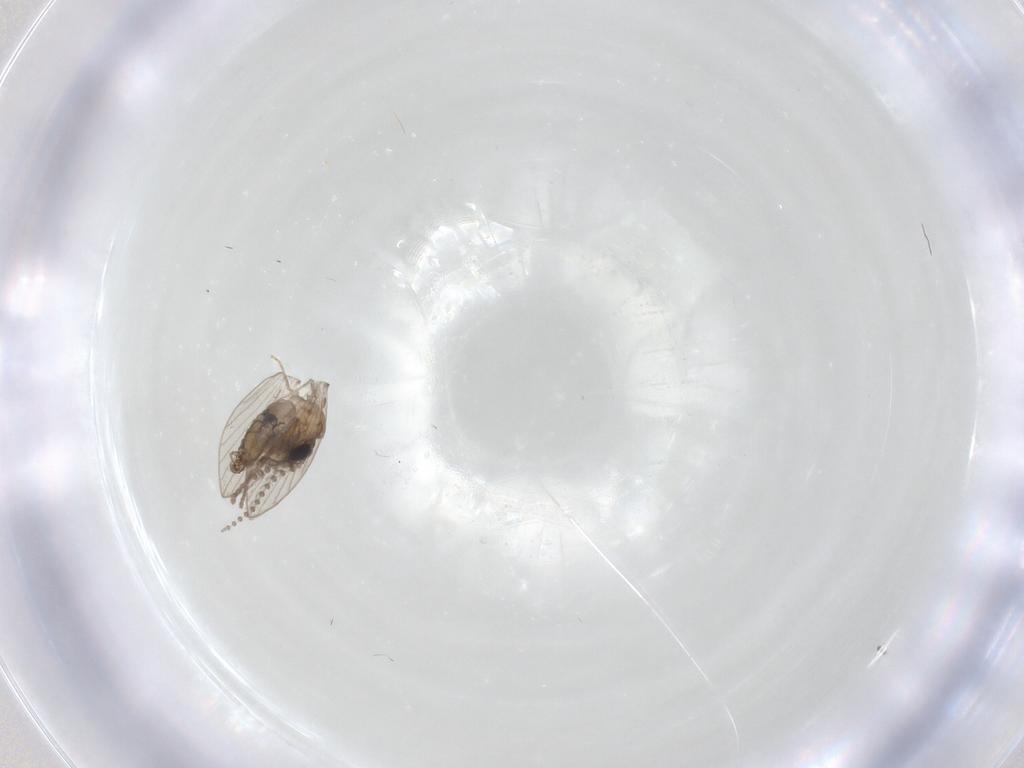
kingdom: Animalia
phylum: Arthropoda
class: Insecta
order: Diptera
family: Psychodidae
